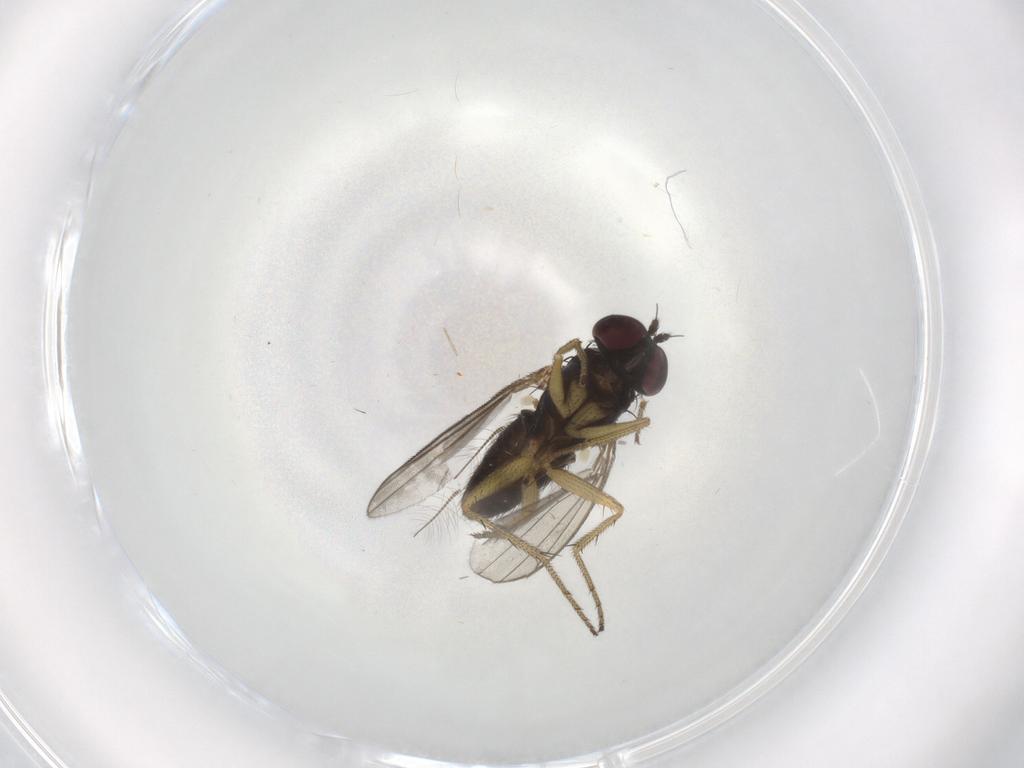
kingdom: Animalia
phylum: Arthropoda
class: Insecta
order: Diptera
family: Chironomidae
